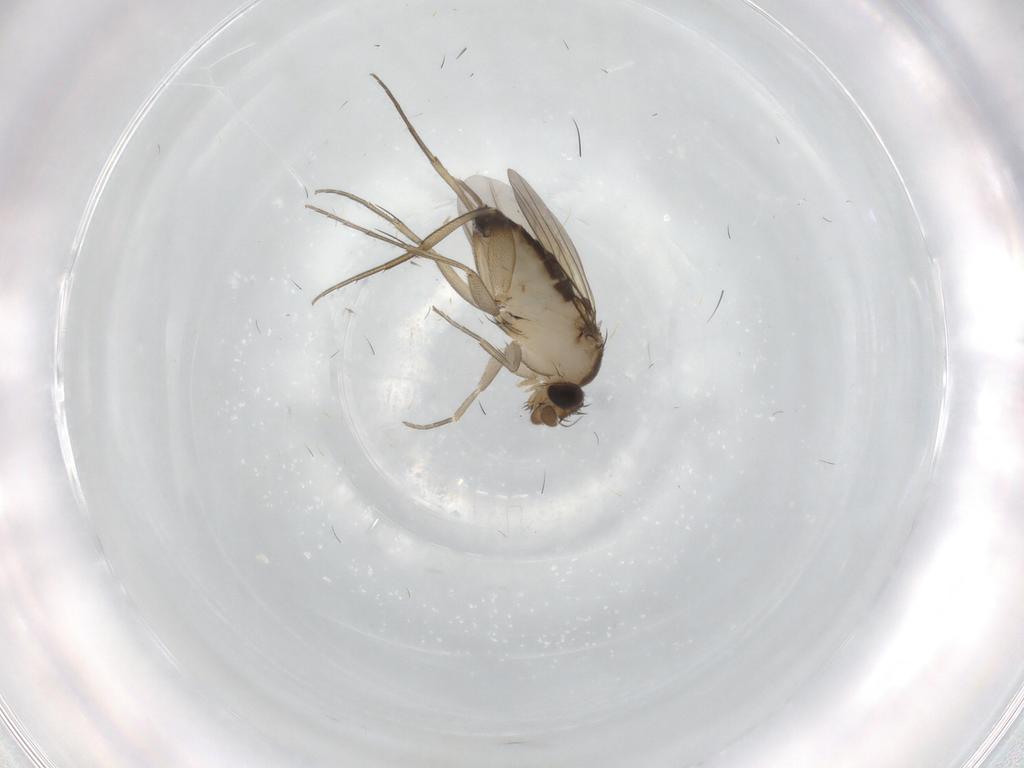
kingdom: Animalia
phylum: Arthropoda
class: Insecta
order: Diptera
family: Phoridae
